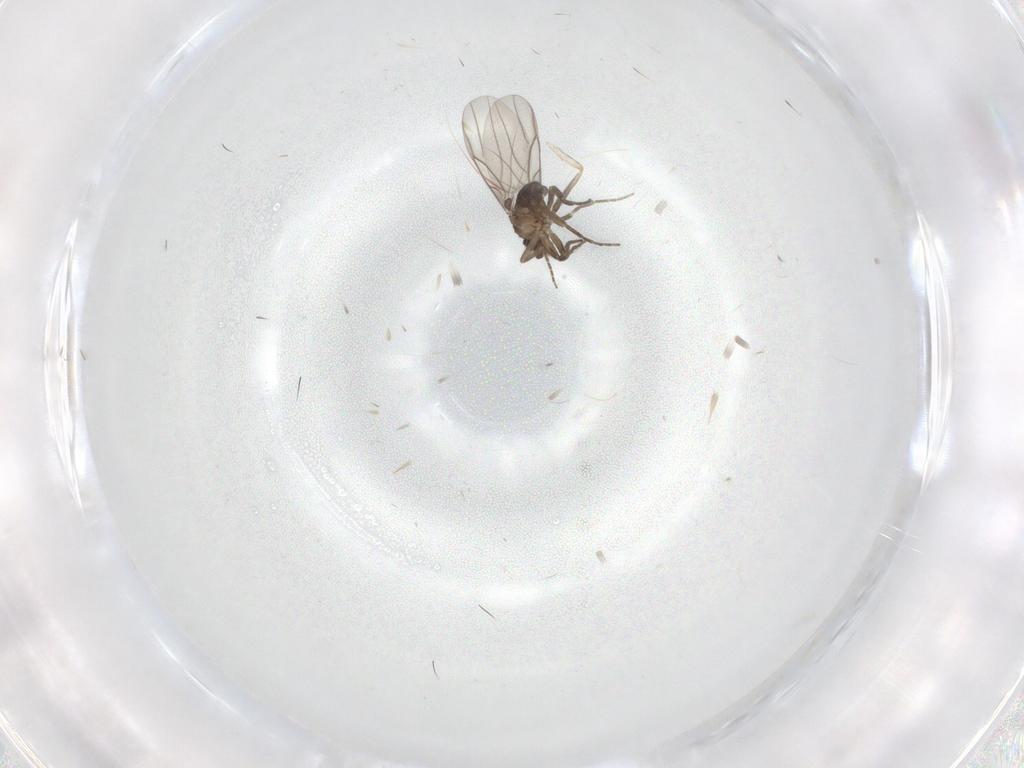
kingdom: Animalia
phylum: Arthropoda
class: Insecta
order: Diptera
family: Phoridae
